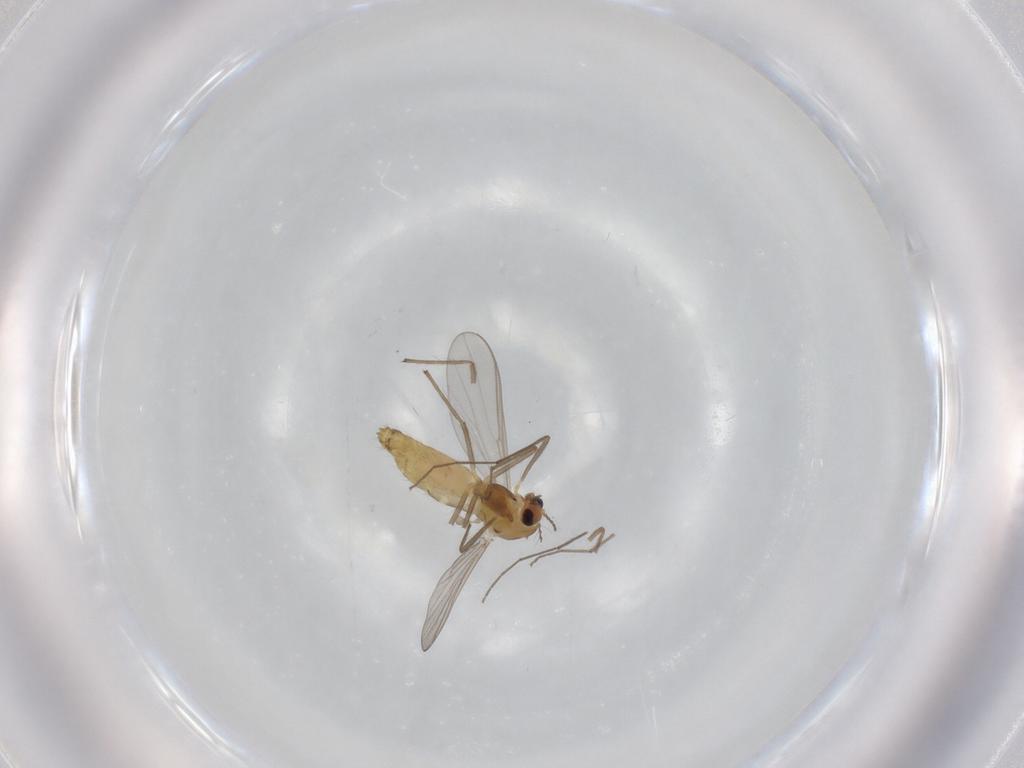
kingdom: Animalia
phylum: Arthropoda
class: Insecta
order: Diptera
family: Chironomidae
